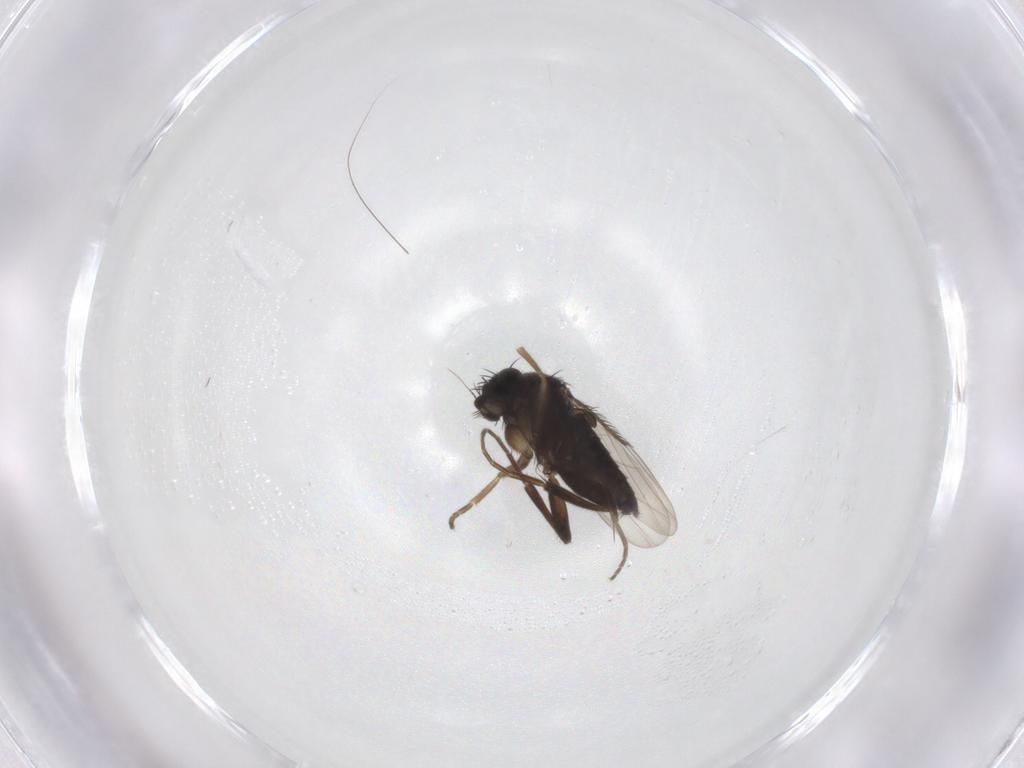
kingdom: Animalia
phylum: Arthropoda
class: Insecta
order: Diptera
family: Phoridae
